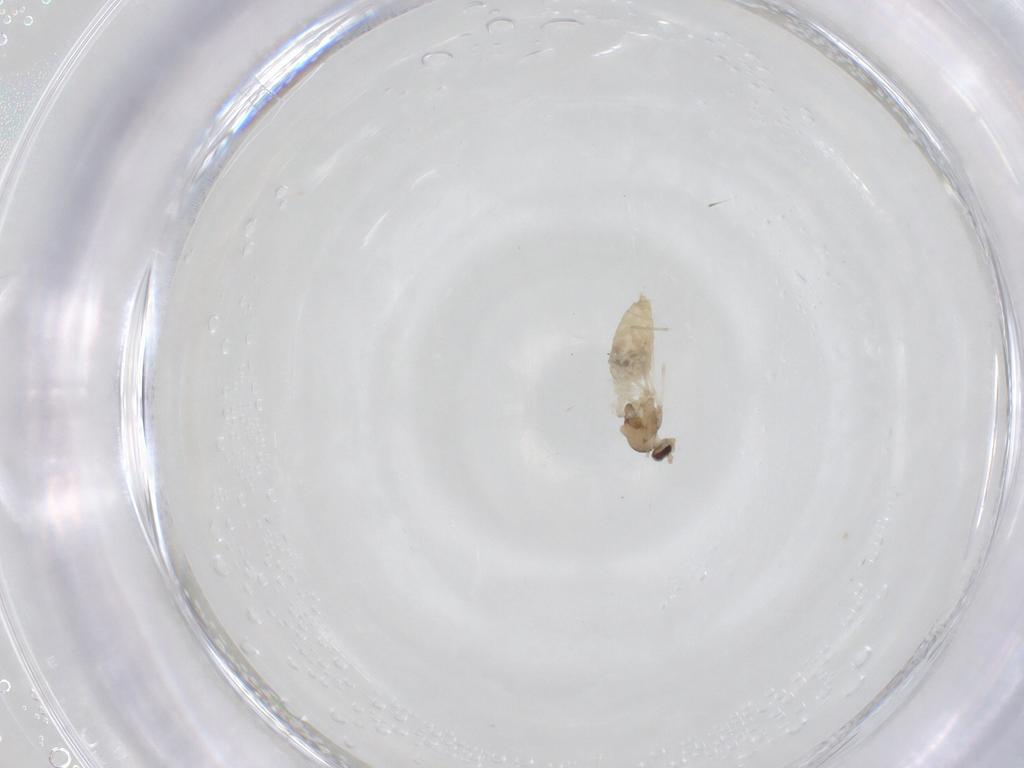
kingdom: Animalia
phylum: Arthropoda
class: Insecta
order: Diptera
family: Cecidomyiidae
